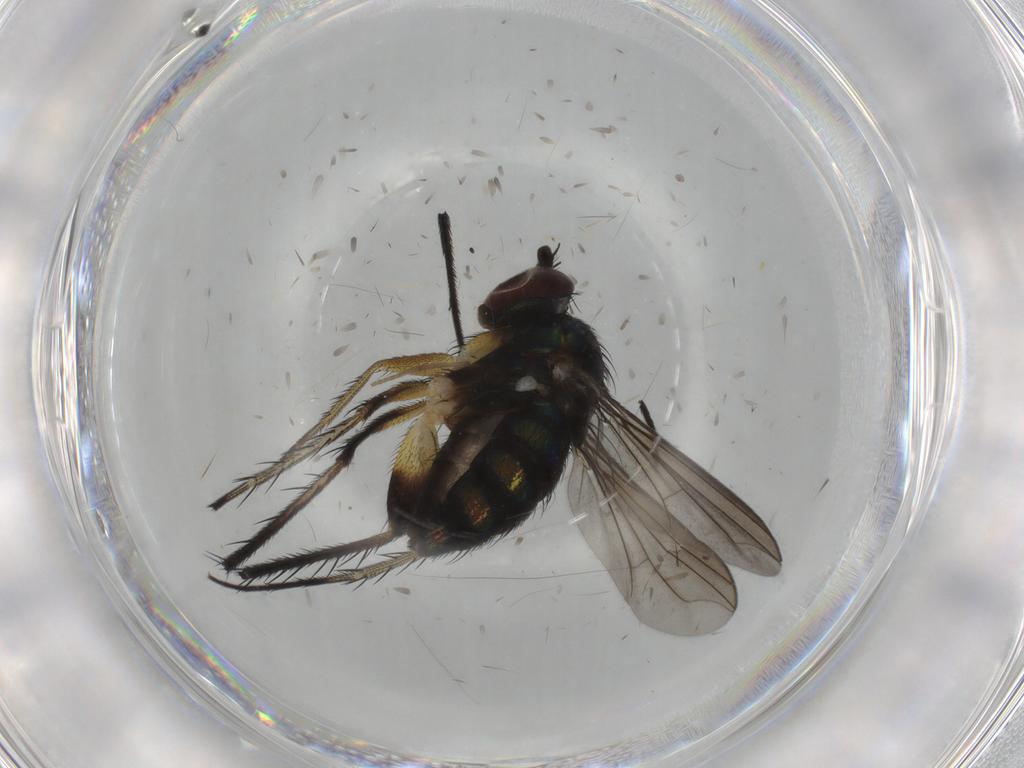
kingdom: Animalia
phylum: Arthropoda
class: Insecta
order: Diptera
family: Dolichopodidae
